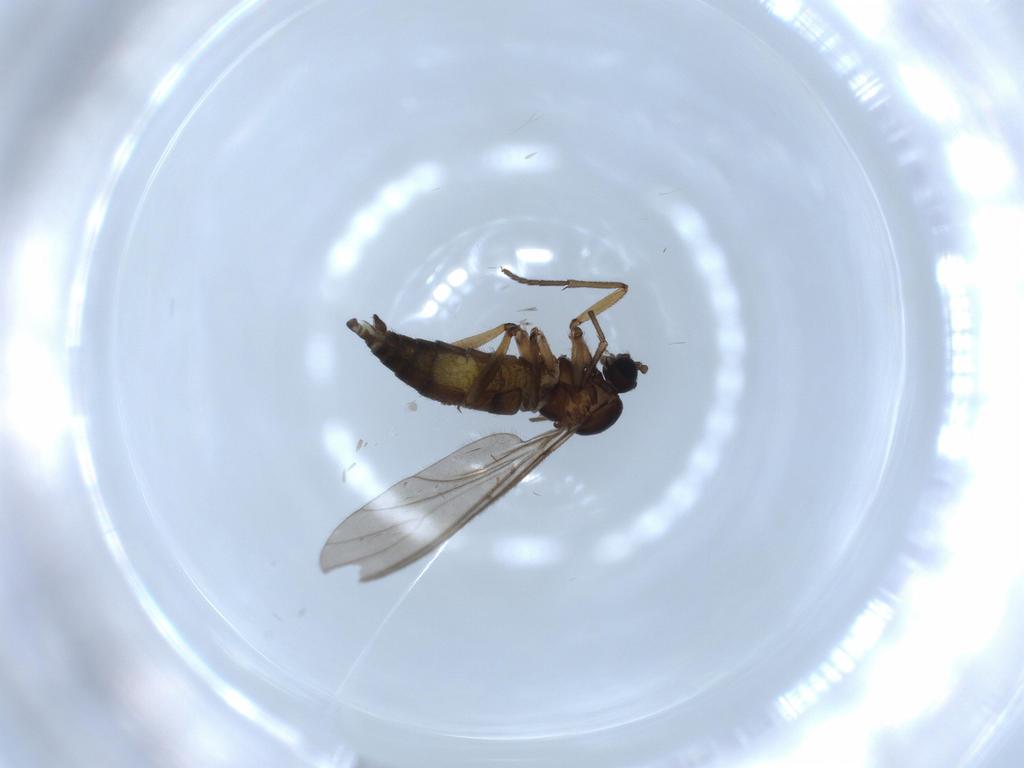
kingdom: Animalia
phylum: Arthropoda
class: Insecta
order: Diptera
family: Sciaridae
